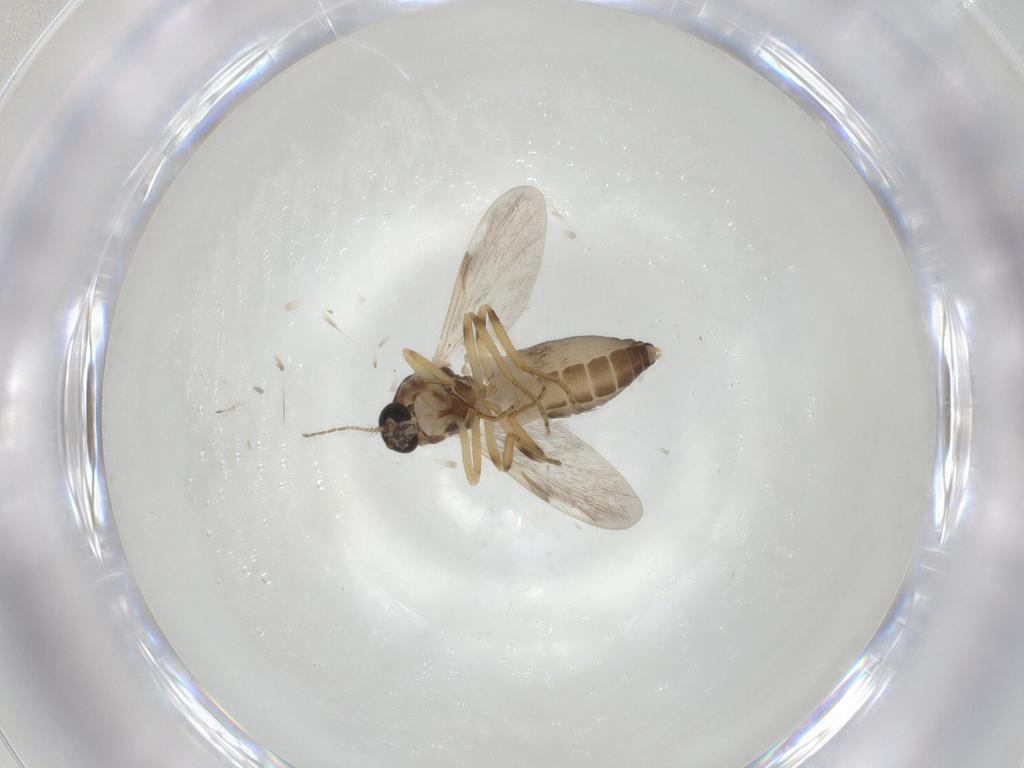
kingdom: Animalia
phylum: Arthropoda
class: Insecta
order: Diptera
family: Ceratopogonidae
